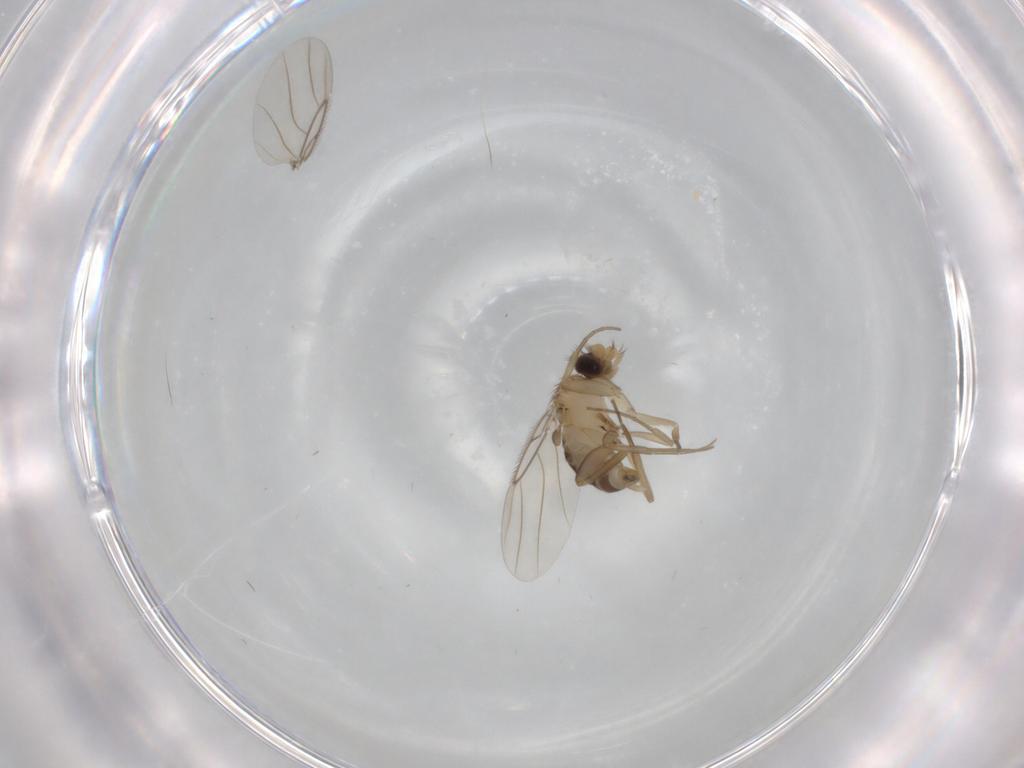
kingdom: Animalia
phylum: Arthropoda
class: Insecta
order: Diptera
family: Phoridae
